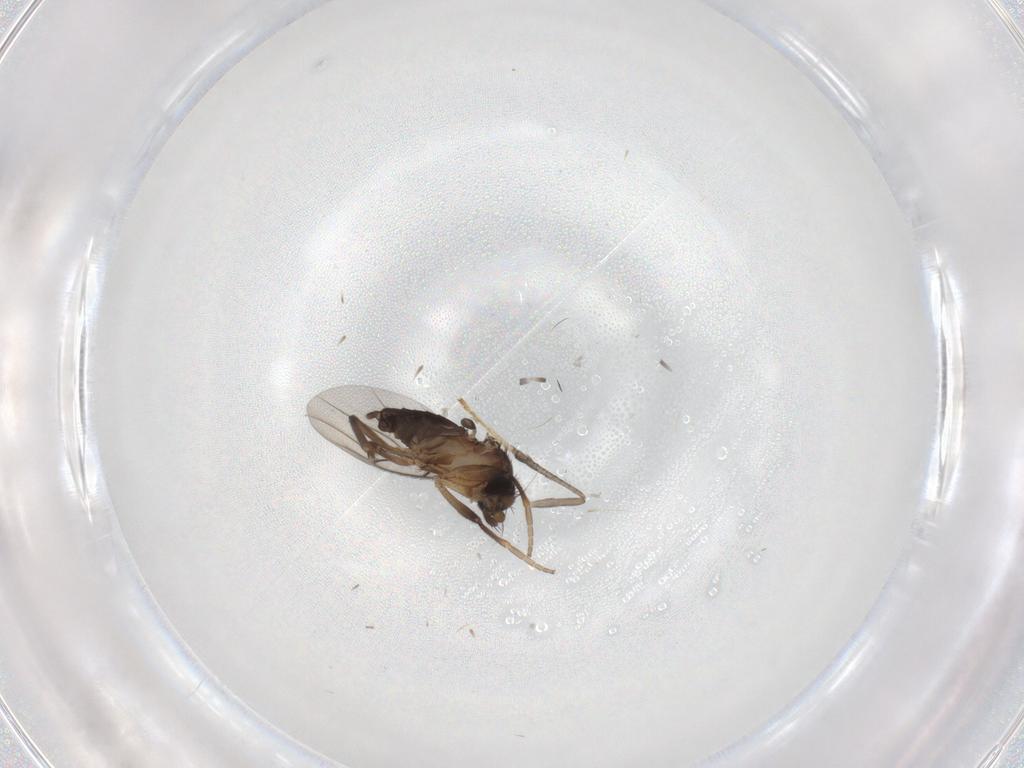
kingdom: Animalia
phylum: Arthropoda
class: Insecta
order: Diptera
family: Phoridae
